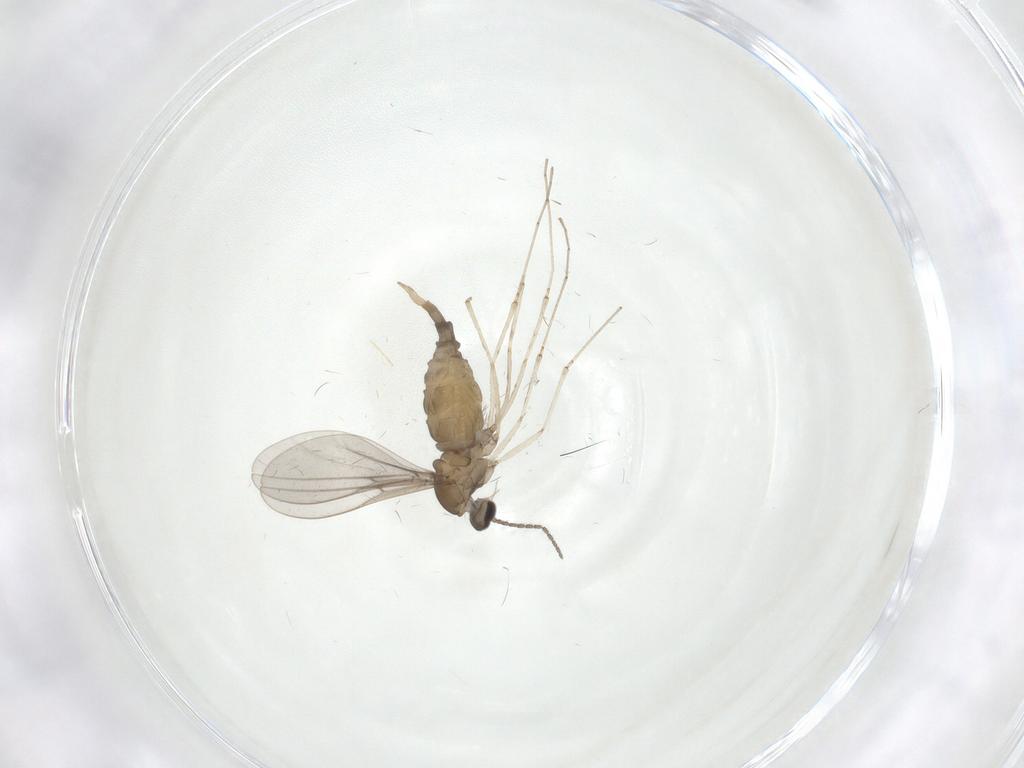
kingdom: Animalia
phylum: Arthropoda
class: Insecta
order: Diptera
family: Cecidomyiidae
